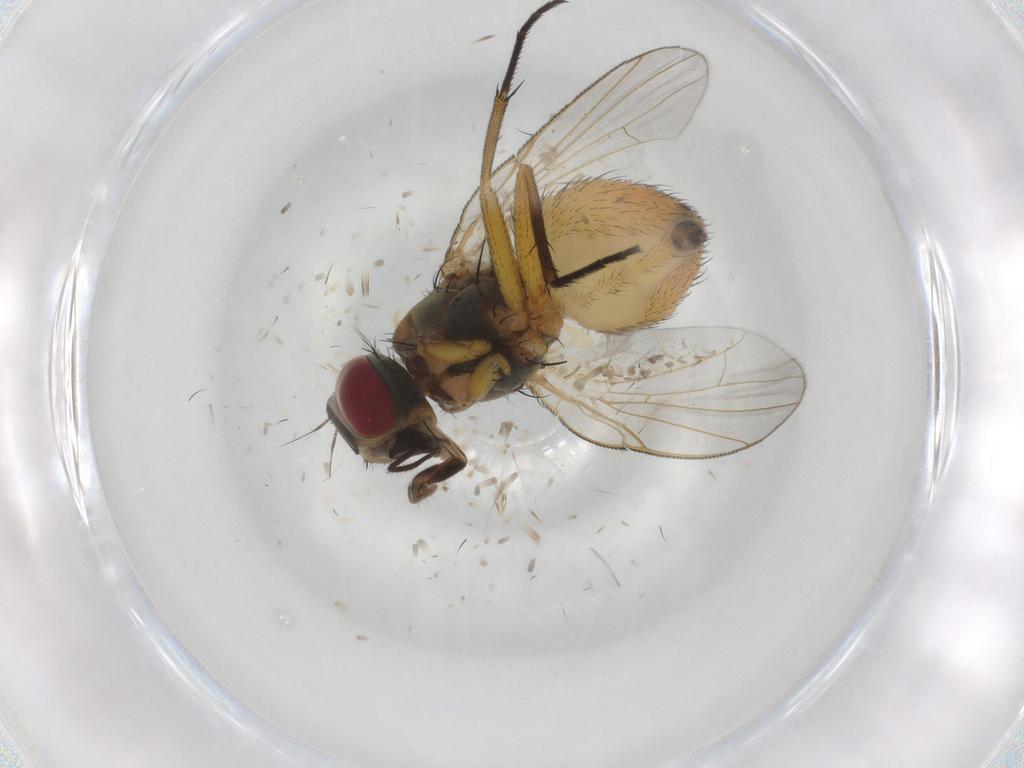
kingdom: Animalia
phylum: Arthropoda
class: Insecta
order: Diptera
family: Muscidae
